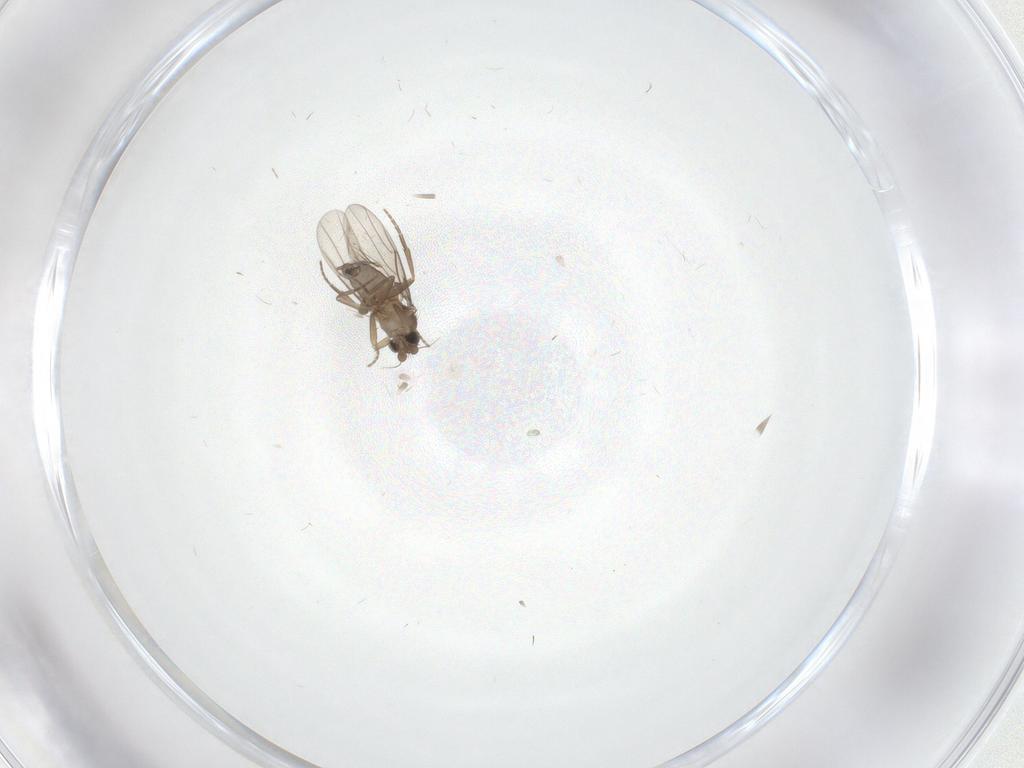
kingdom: Animalia
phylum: Arthropoda
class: Insecta
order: Diptera
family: Phoridae
